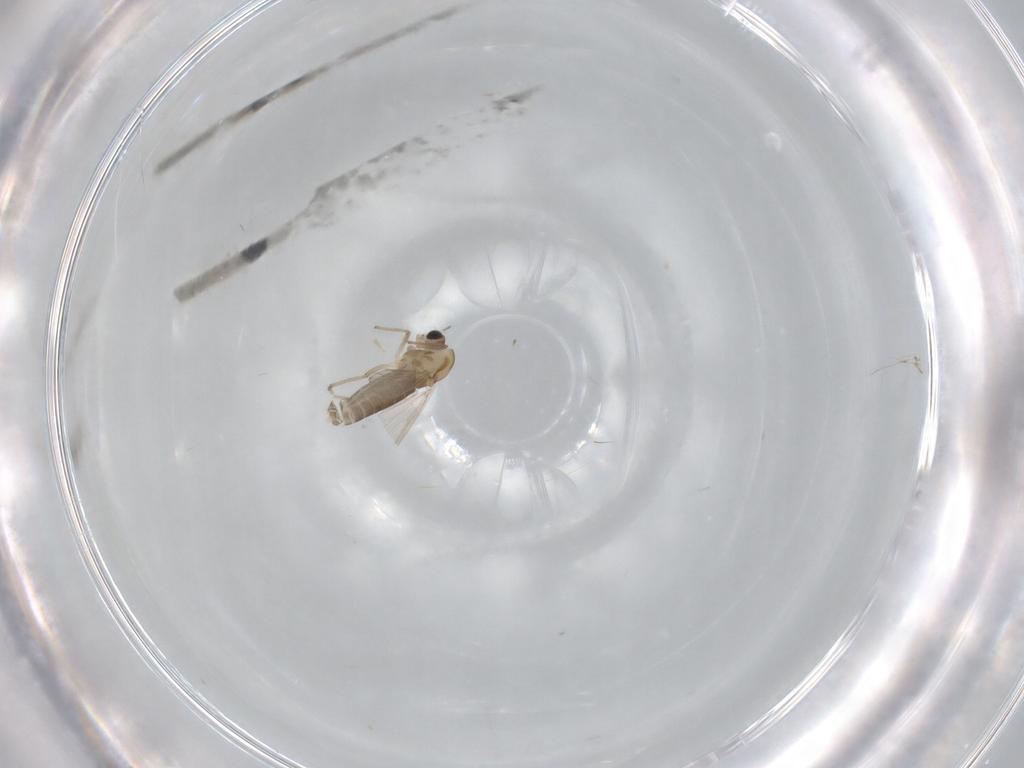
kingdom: Animalia
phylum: Arthropoda
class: Insecta
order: Diptera
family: Chironomidae
